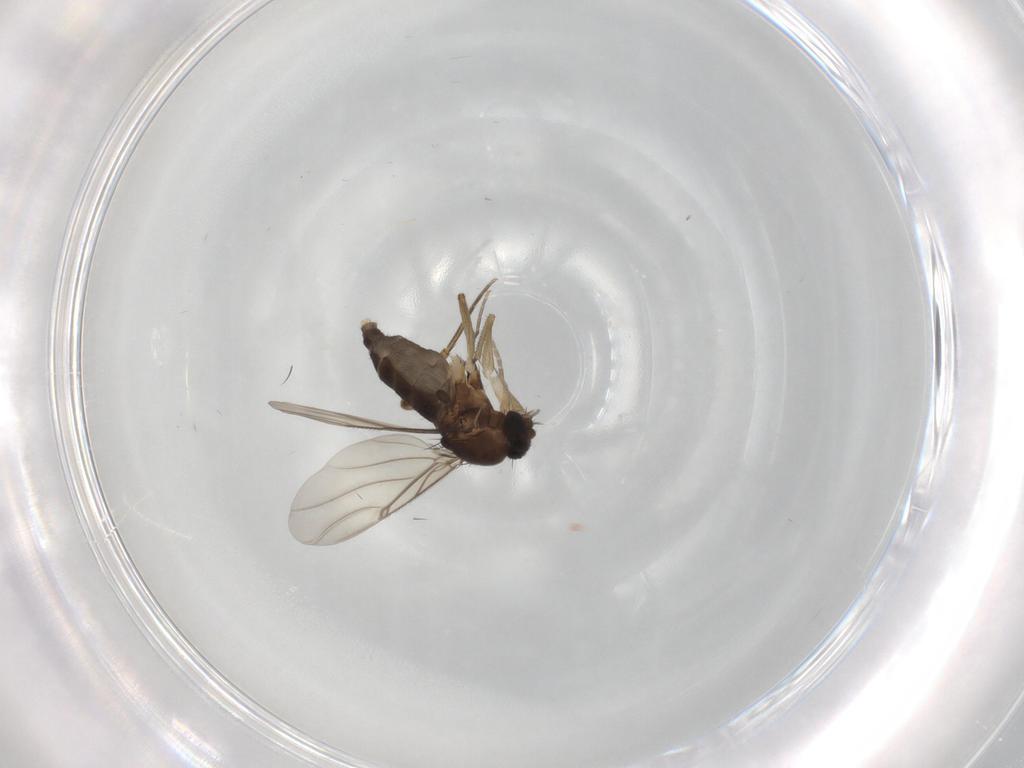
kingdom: Animalia
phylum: Arthropoda
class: Insecta
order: Diptera
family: Phoridae
